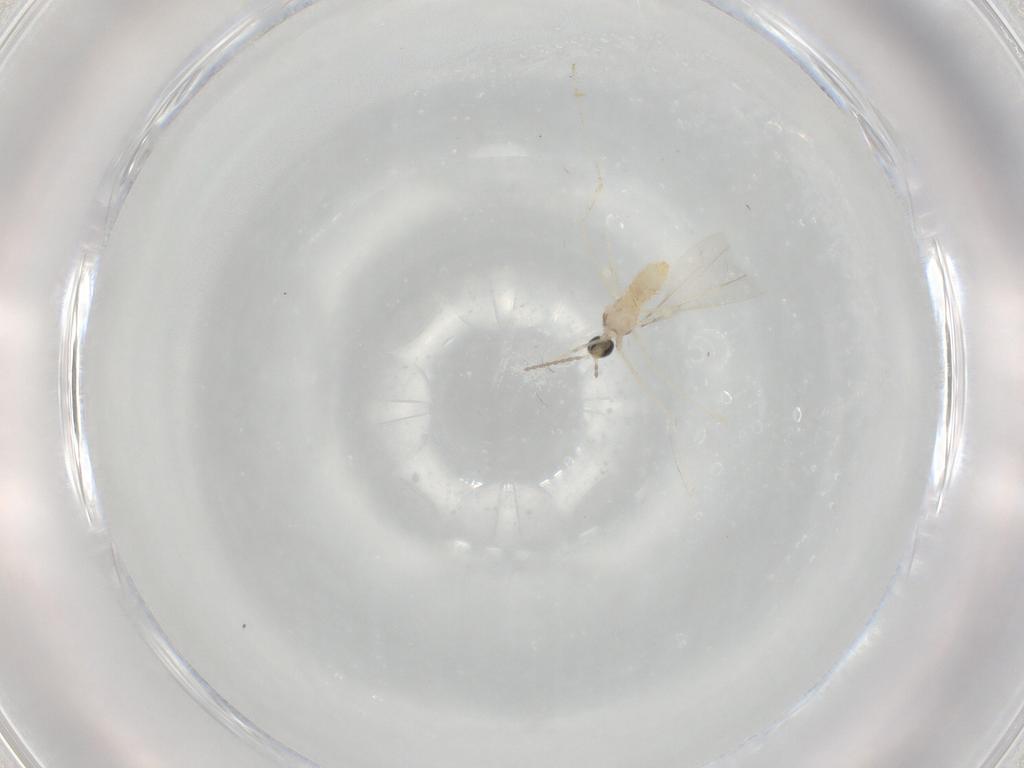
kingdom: Animalia
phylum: Arthropoda
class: Insecta
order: Diptera
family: Cecidomyiidae
